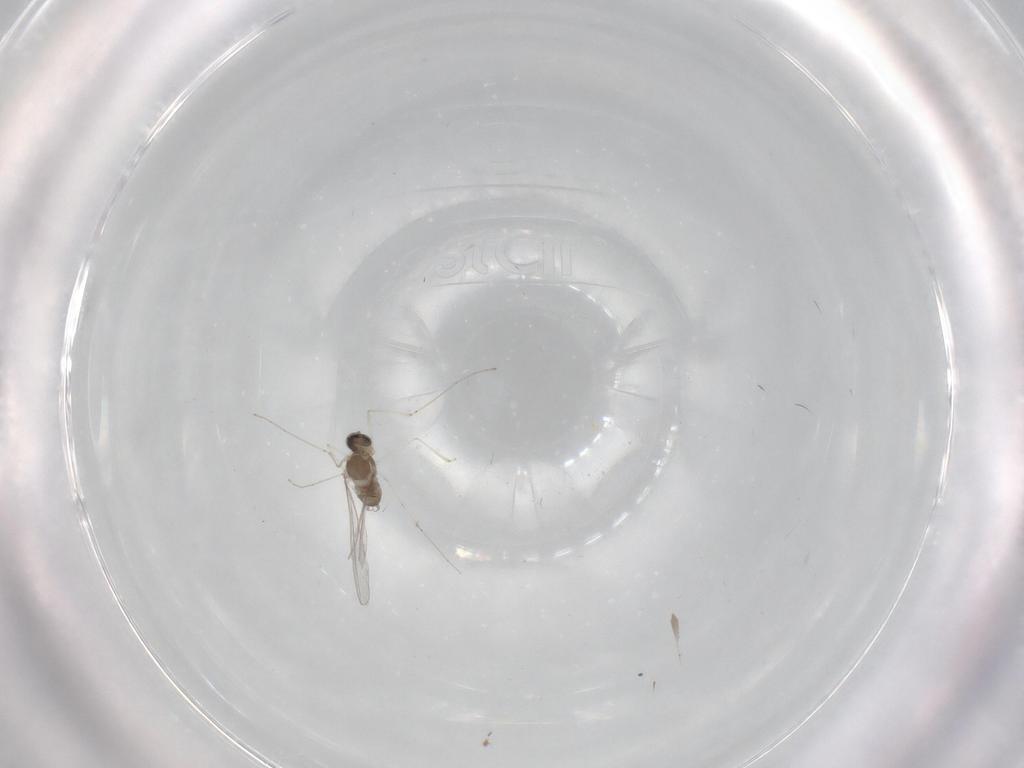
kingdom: Animalia
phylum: Arthropoda
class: Insecta
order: Diptera
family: Cecidomyiidae
